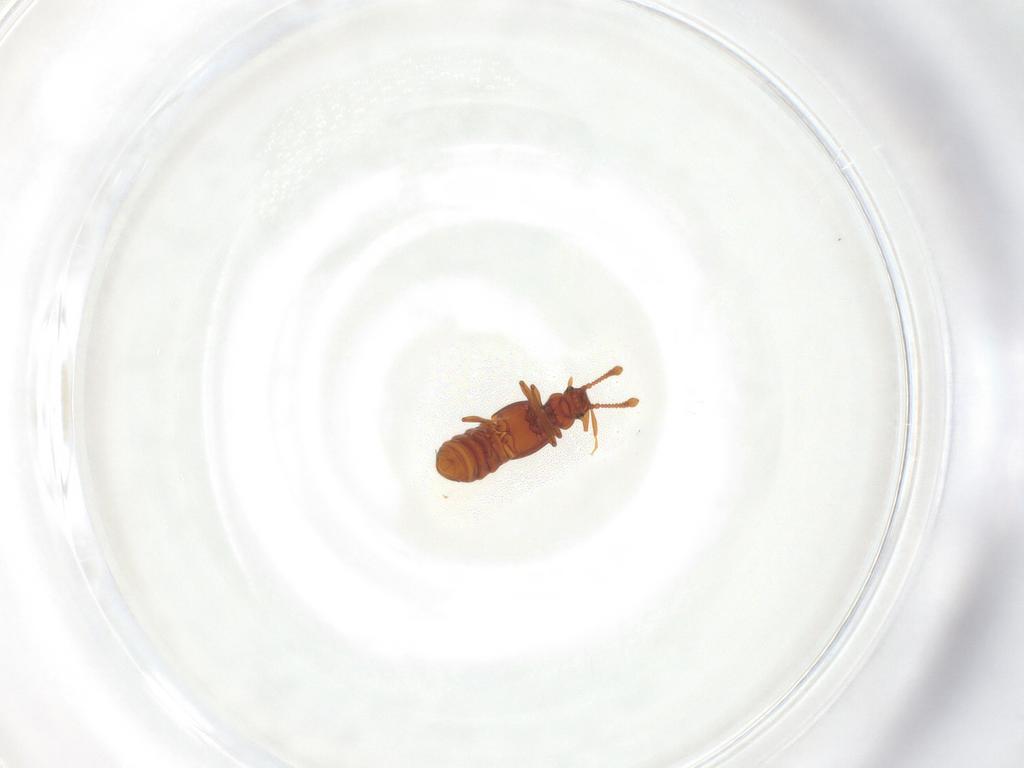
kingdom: Animalia
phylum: Arthropoda
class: Insecta
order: Coleoptera
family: Staphylinidae
